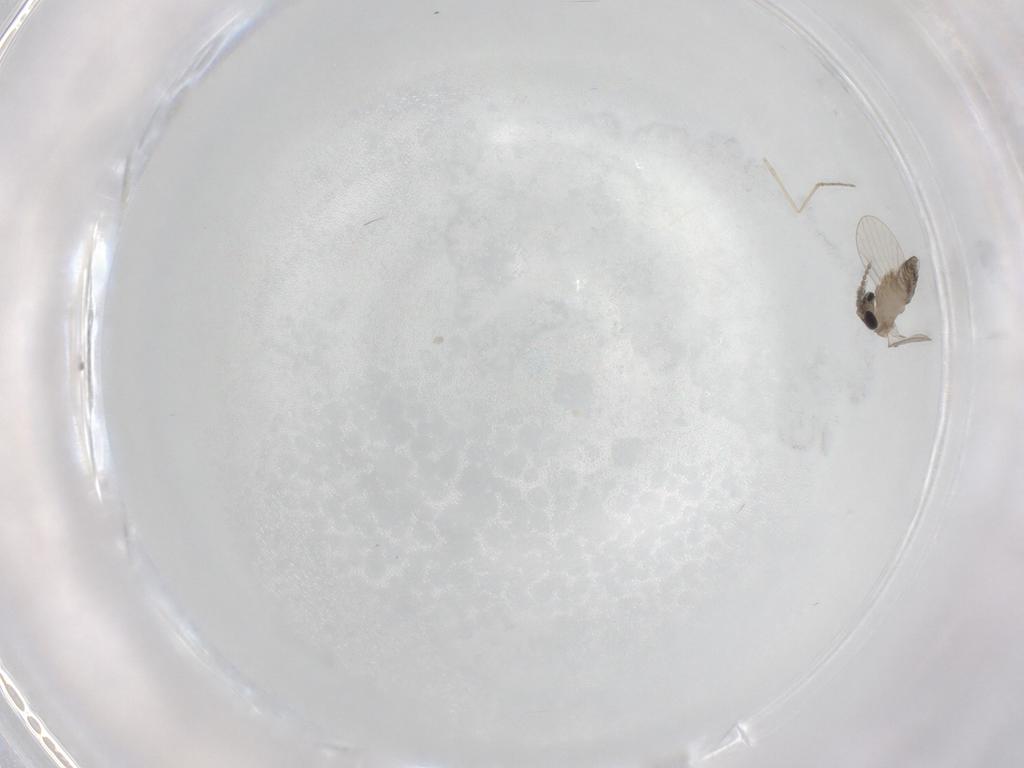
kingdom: Animalia
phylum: Arthropoda
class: Insecta
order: Diptera
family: Psychodidae
